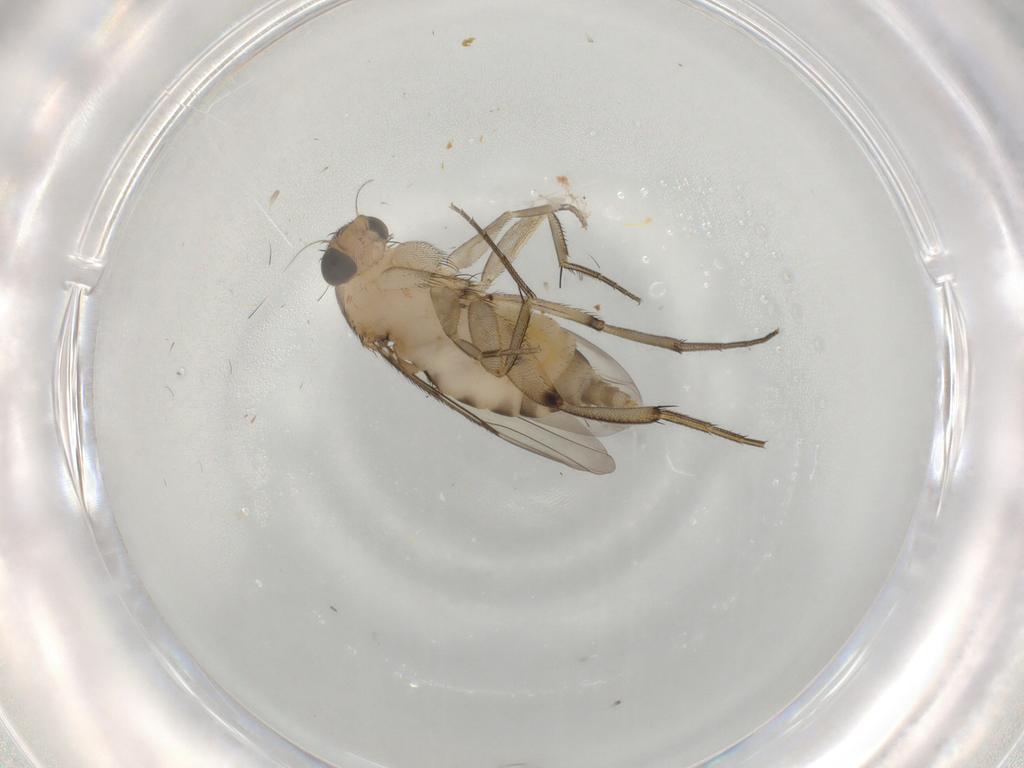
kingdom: Animalia
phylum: Arthropoda
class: Insecta
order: Diptera
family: Phoridae
